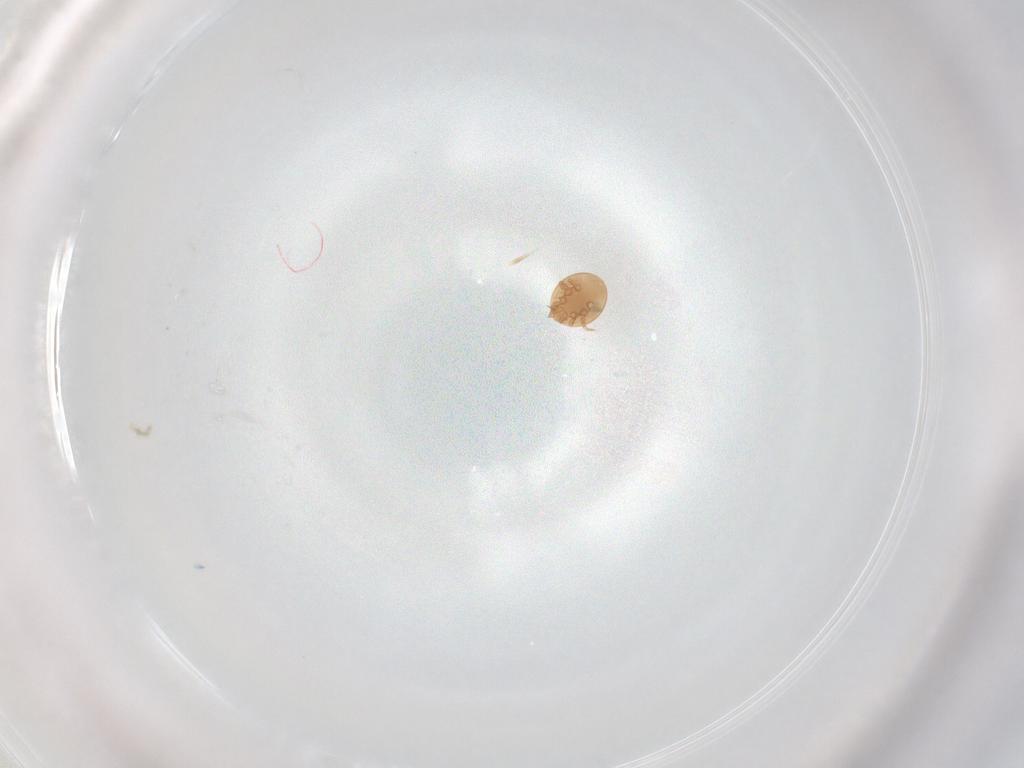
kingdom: Animalia
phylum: Arthropoda
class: Arachnida
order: Mesostigmata
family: Trematuridae
